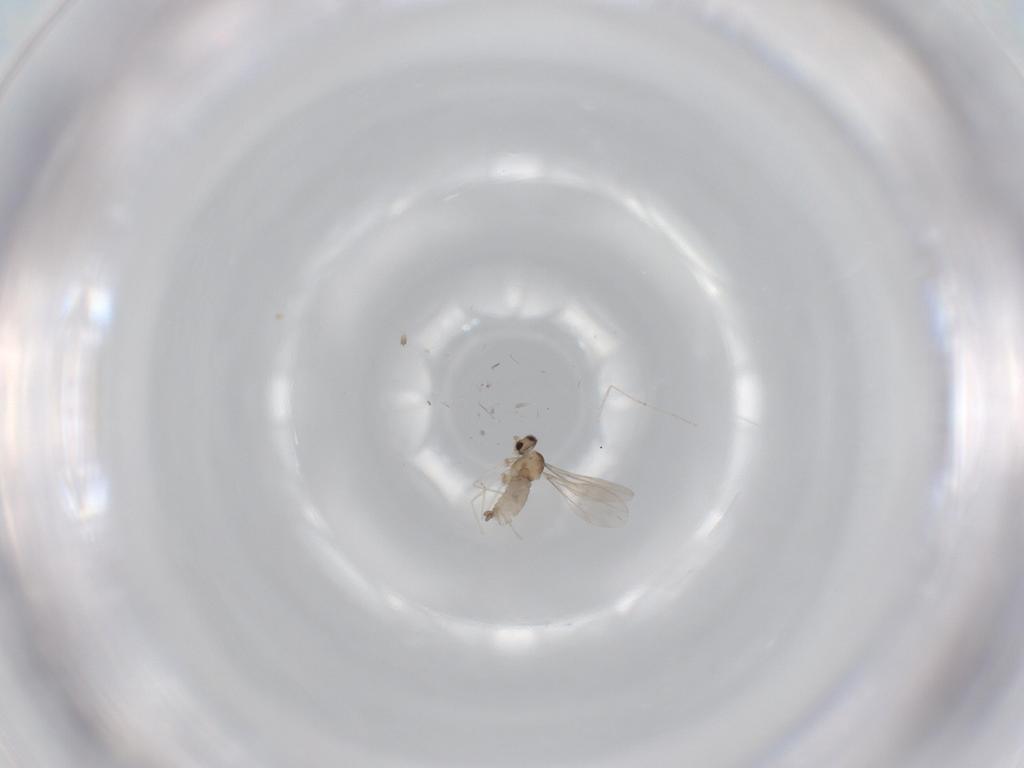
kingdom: Animalia
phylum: Arthropoda
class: Insecta
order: Diptera
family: Cecidomyiidae
